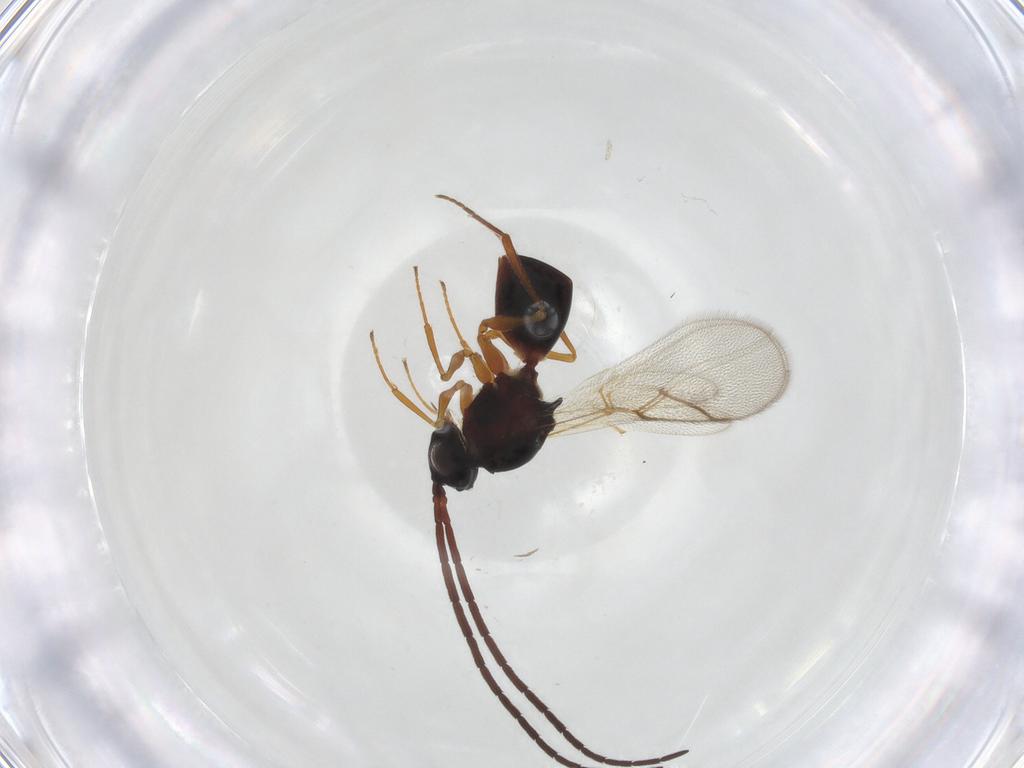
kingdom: Animalia
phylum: Arthropoda
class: Insecta
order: Hymenoptera
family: Figitidae
